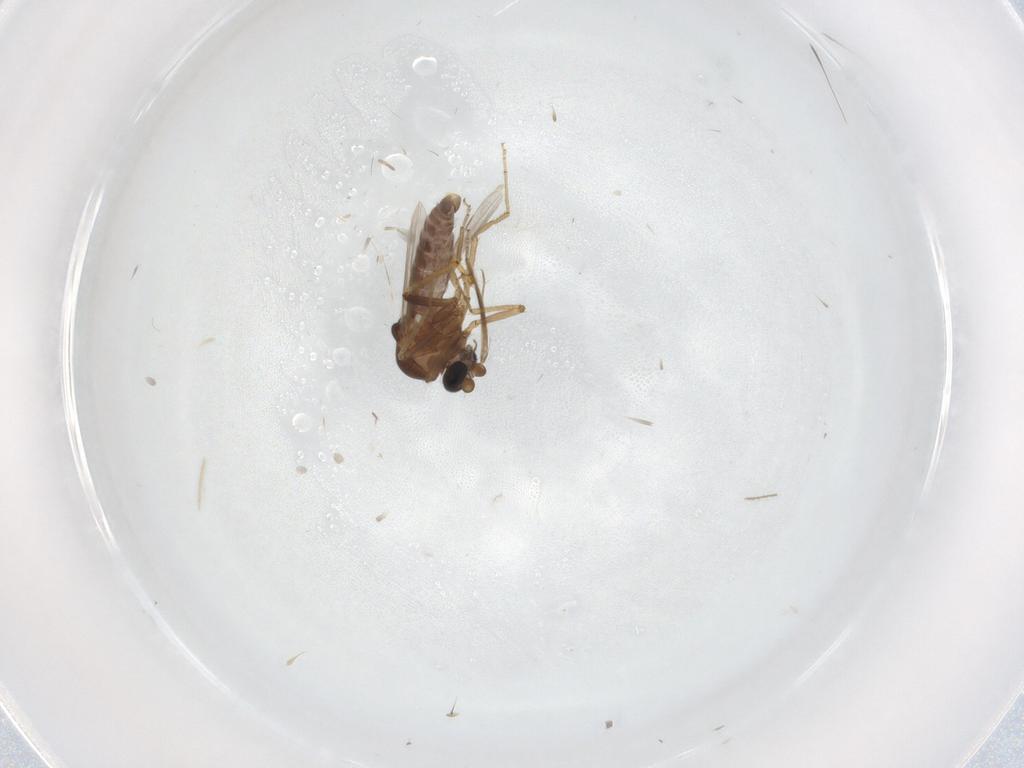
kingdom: Animalia
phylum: Arthropoda
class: Insecta
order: Diptera
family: Ceratopogonidae
